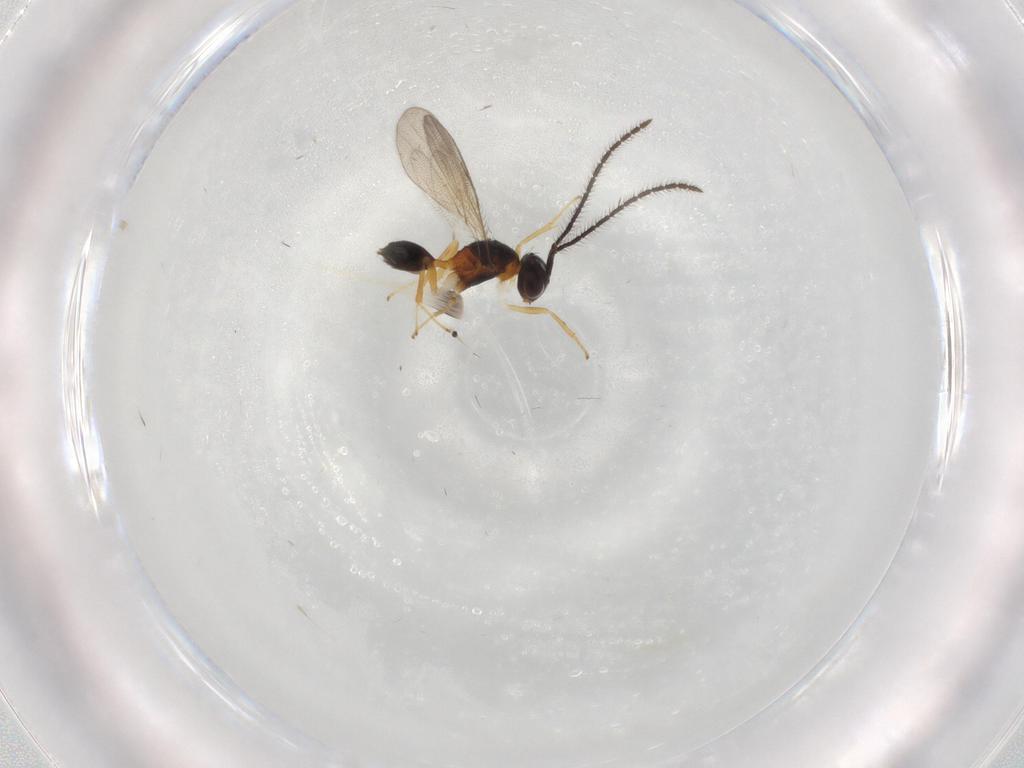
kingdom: Animalia
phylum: Arthropoda
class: Insecta
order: Hymenoptera
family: Diparidae
